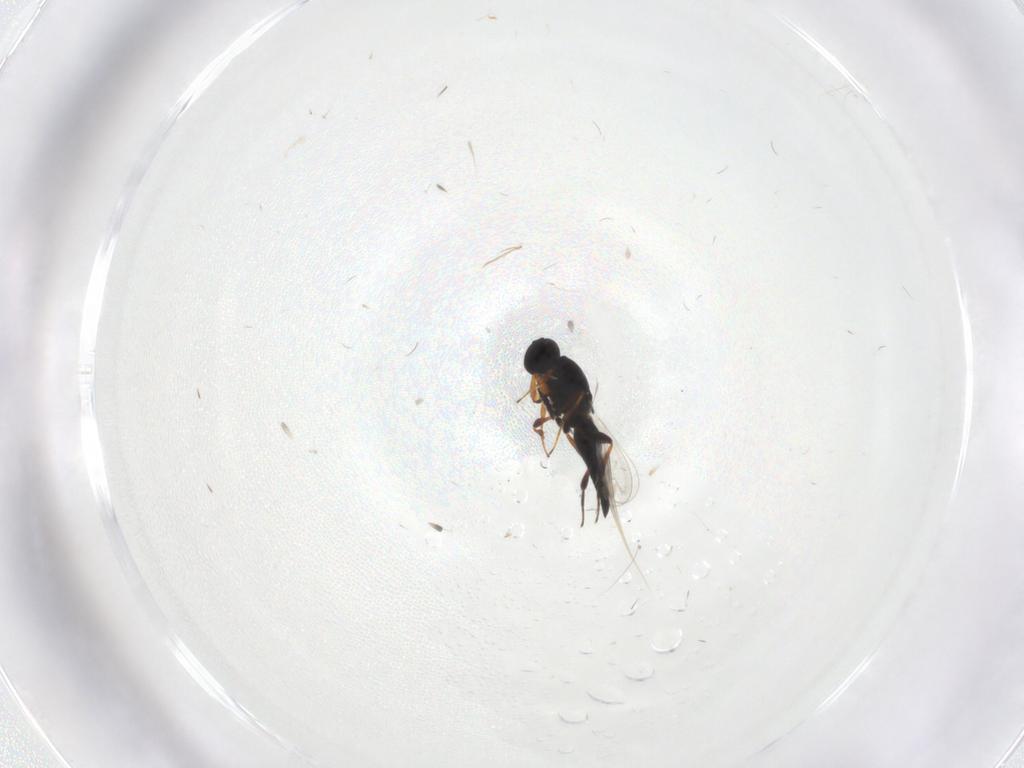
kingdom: Animalia
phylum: Arthropoda
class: Insecta
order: Hymenoptera
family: Platygastridae
